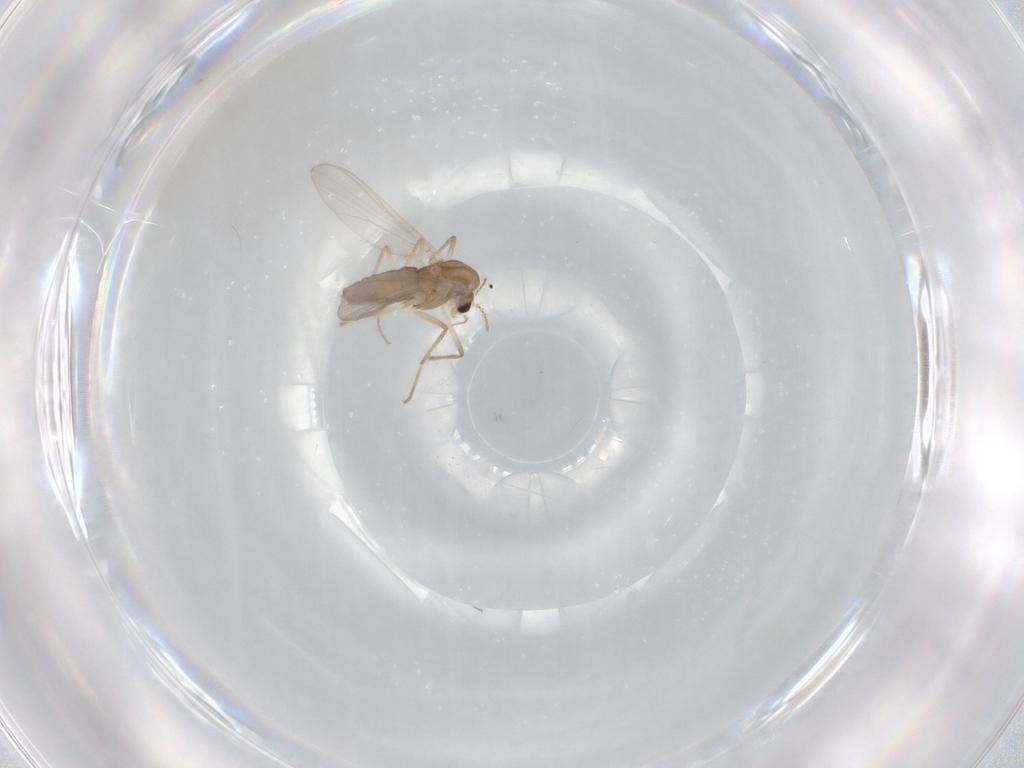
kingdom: Animalia
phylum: Arthropoda
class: Insecta
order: Diptera
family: Chironomidae
